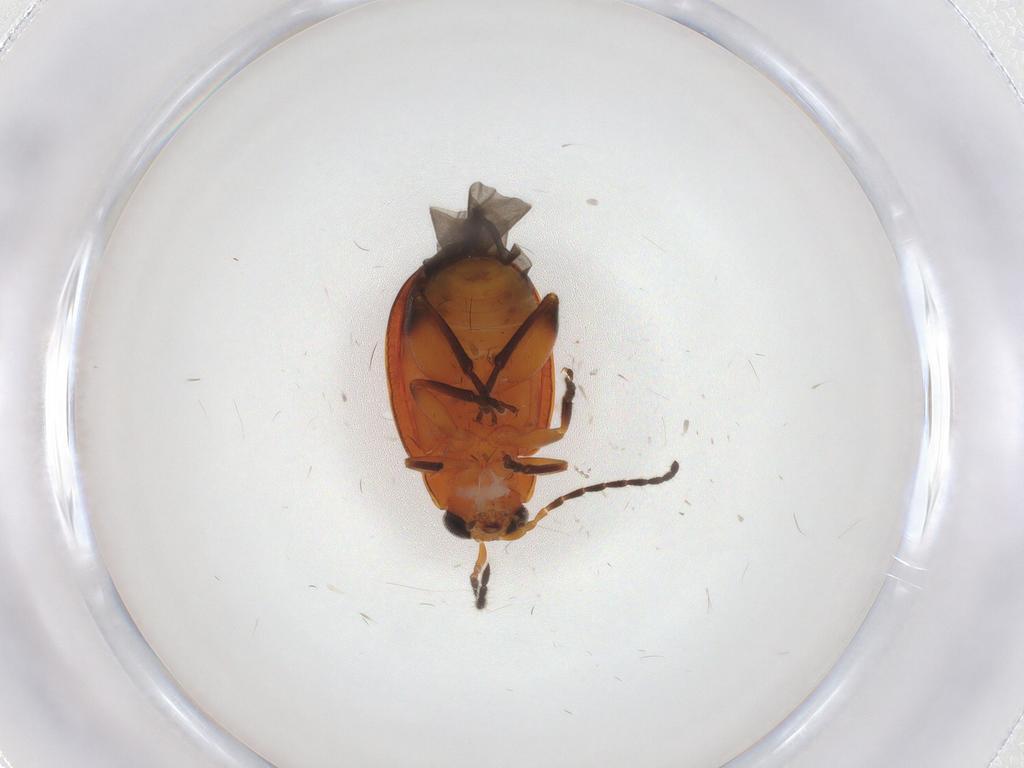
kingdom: Animalia
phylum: Arthropoda
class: Insecta
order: Coleoptera
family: Chrysomelidae
